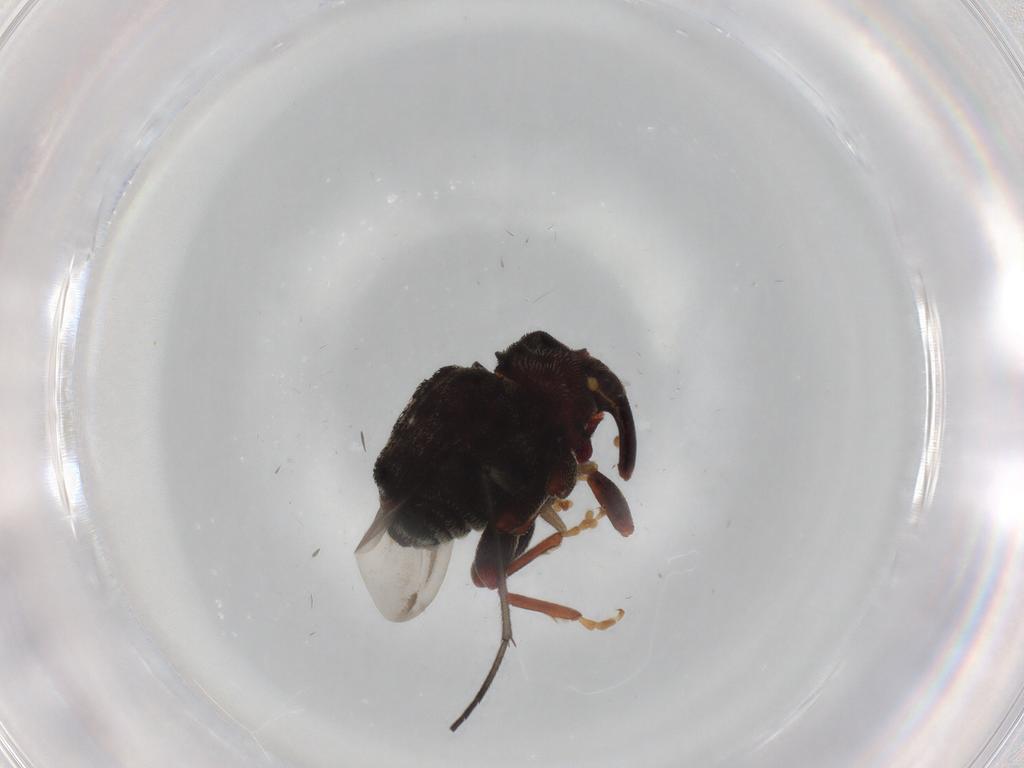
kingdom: Animalia
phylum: Arthropoda
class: Insecta
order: Coleoptera
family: Curculionidae
